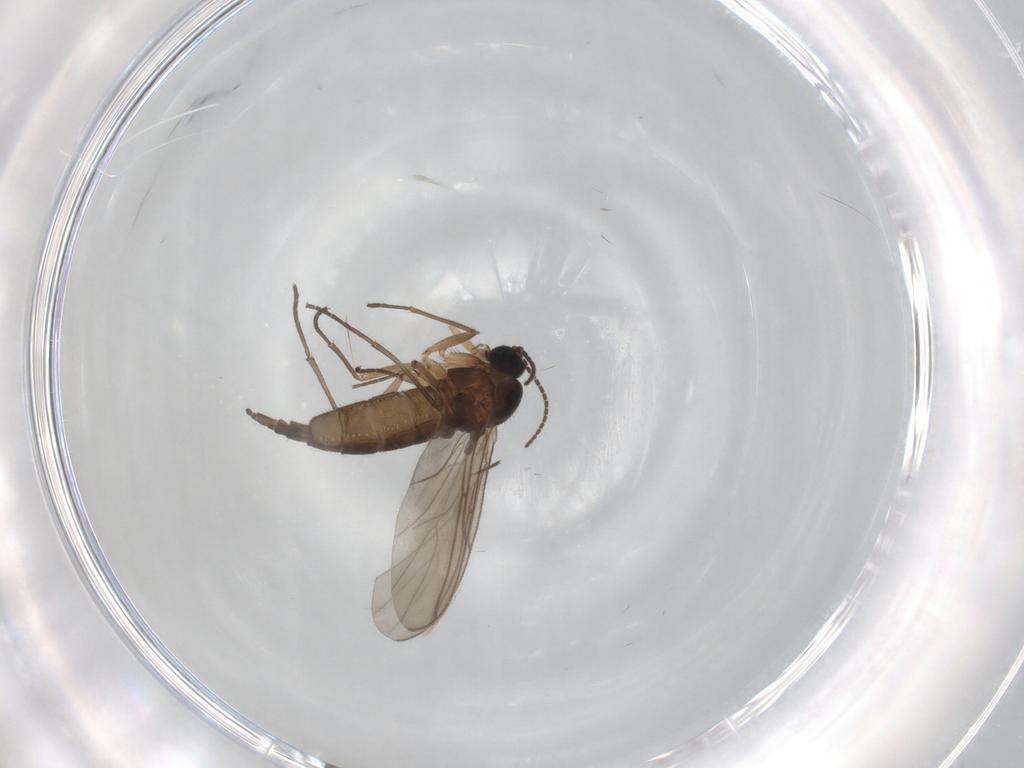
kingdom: Animalia
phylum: Arthropoda
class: Insecta
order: Diptera
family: Sciaridae
